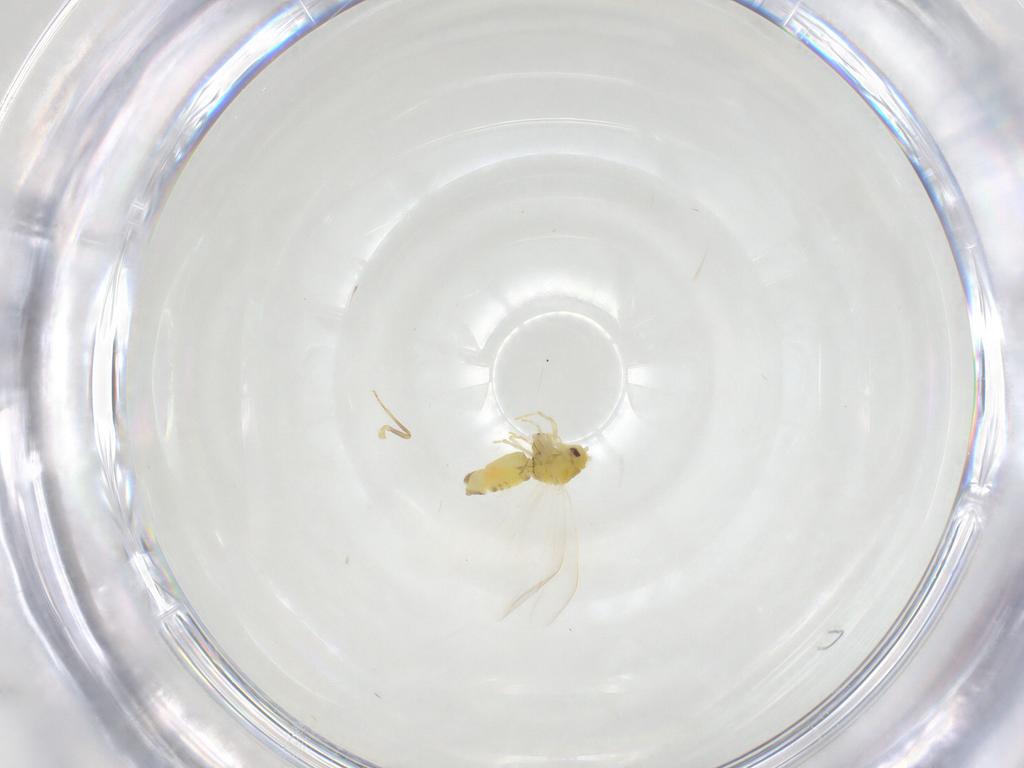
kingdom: Animalia
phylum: Arthropoda
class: Insecta
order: Hemiptera
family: Aleyrodidae
